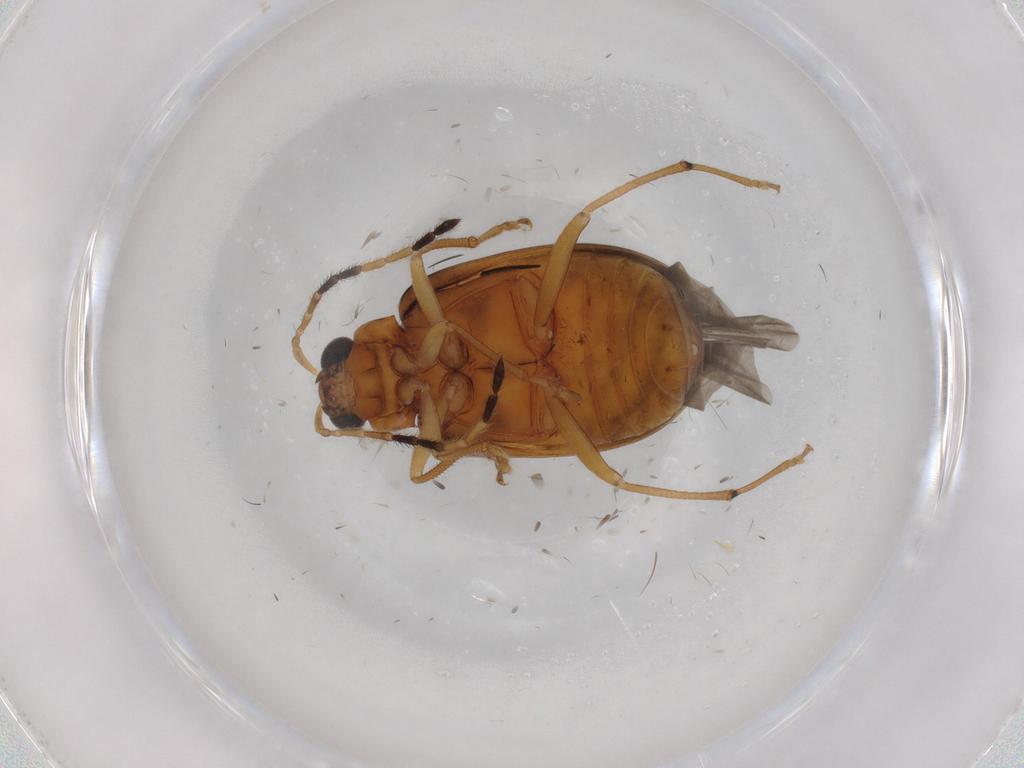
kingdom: Animalia
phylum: Arthropoda
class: Insecta
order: Coleoptera
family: Chrysomelidae
